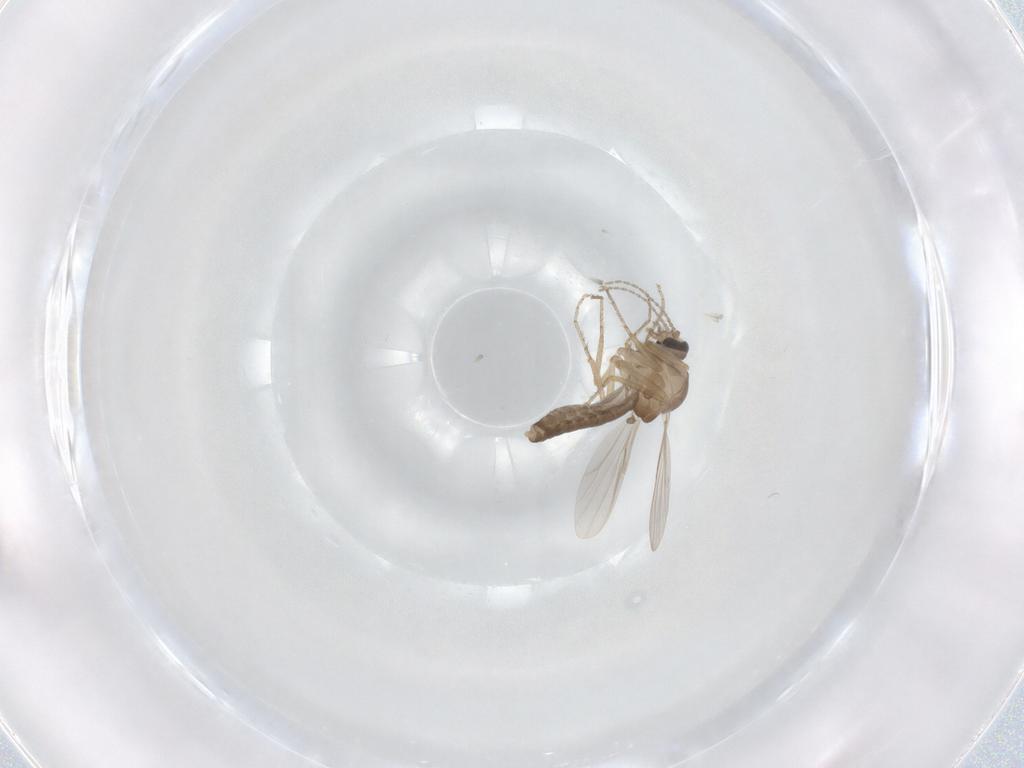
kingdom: Animalia
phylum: Arthropoda
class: Insecta
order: Diptera
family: Ceratopogonidae
